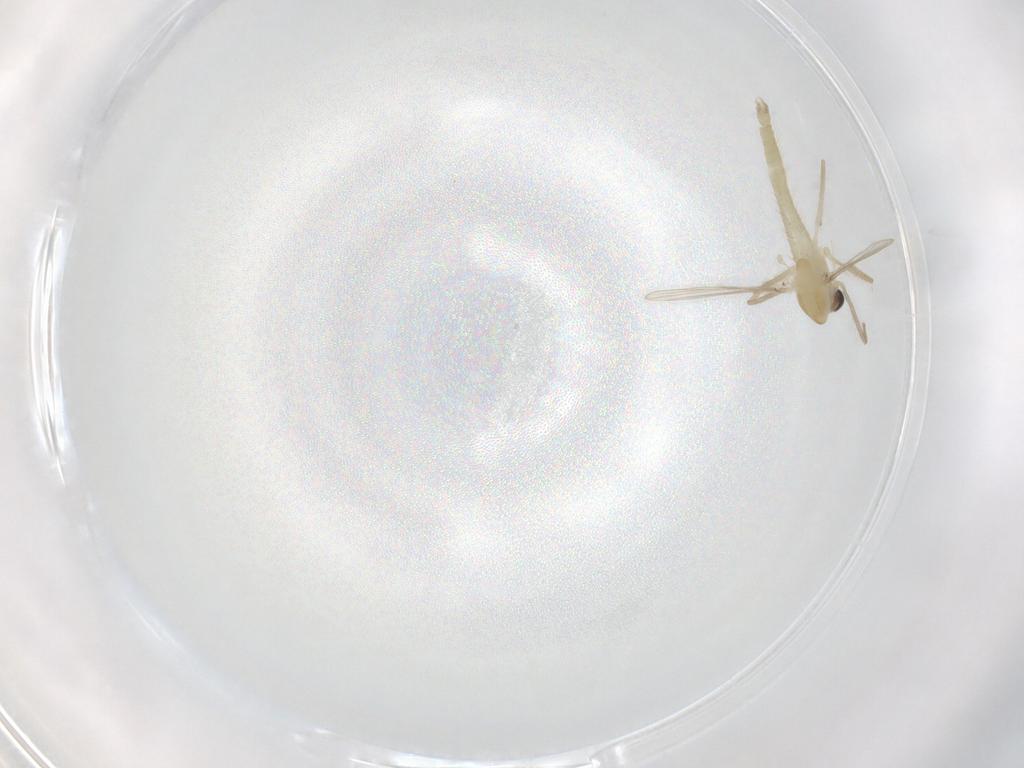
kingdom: Animalia
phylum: Arthropoda
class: Insecta
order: Diptera
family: Chironomidae
